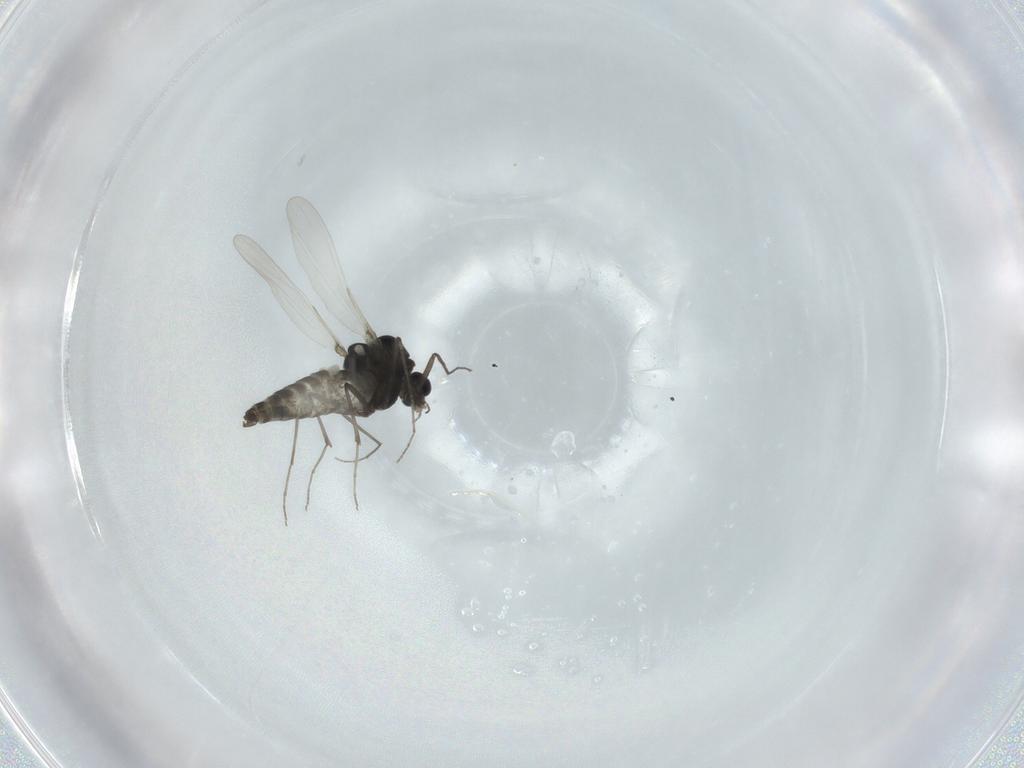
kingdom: Animalia
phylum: Arthropoda
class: Insecta
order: Diptera
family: Chironomidae
